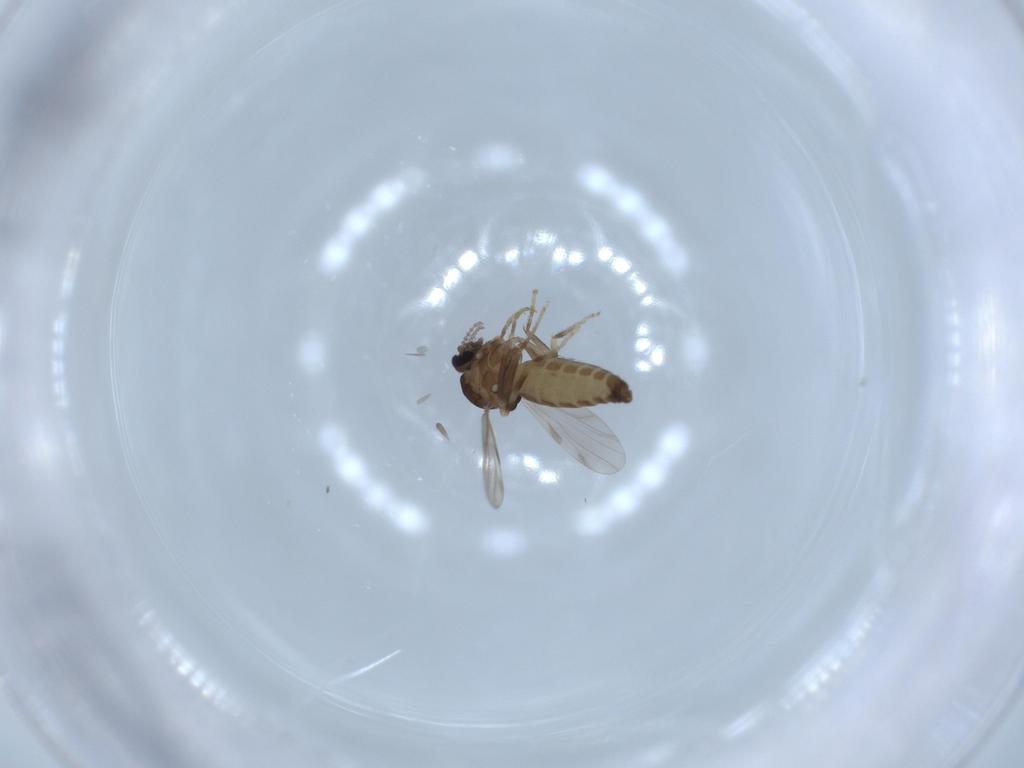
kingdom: Animalia
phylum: Arthropoda
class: Insecta
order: Diptera
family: Ceratopogonidae
